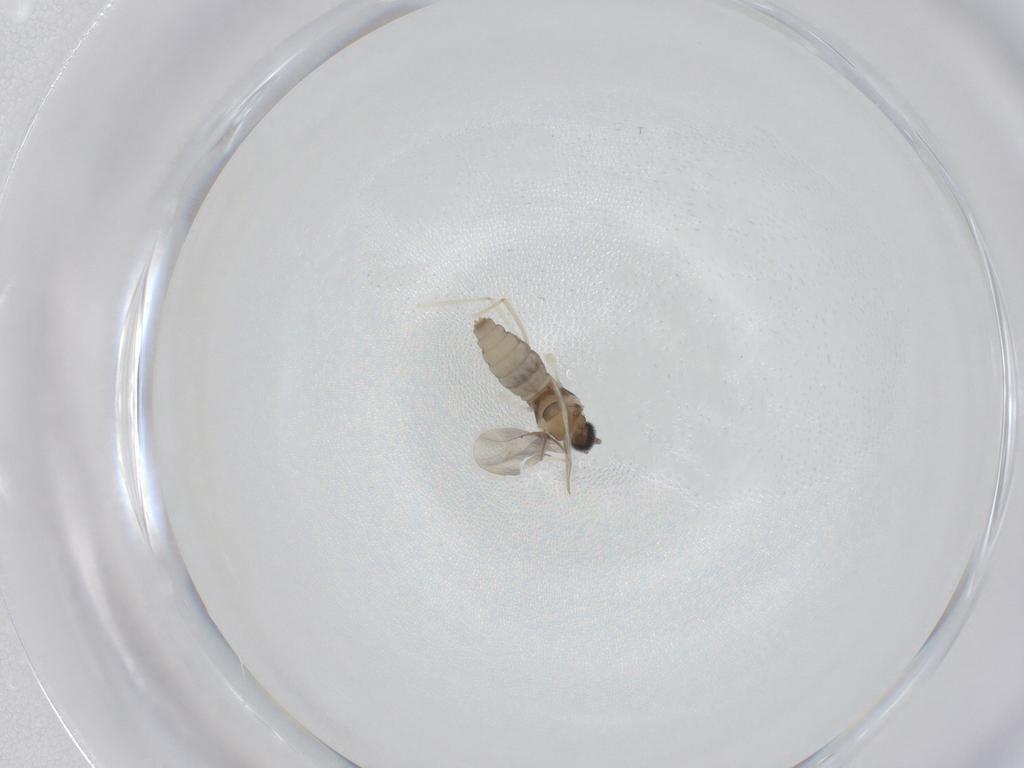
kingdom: Animalia
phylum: Arthropoda
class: Insecta
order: Diptera
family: Cecidomyiidae
